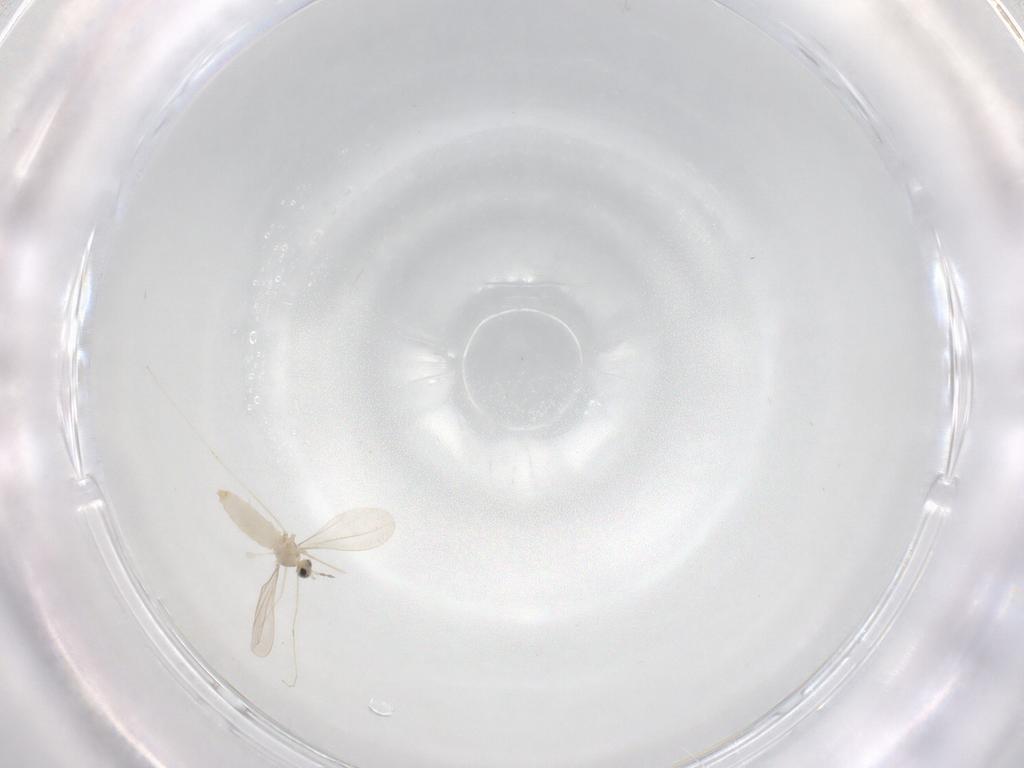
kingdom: Animalia
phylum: Arthropoda
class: Insecta
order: Diptera
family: Cecidomyiidae
